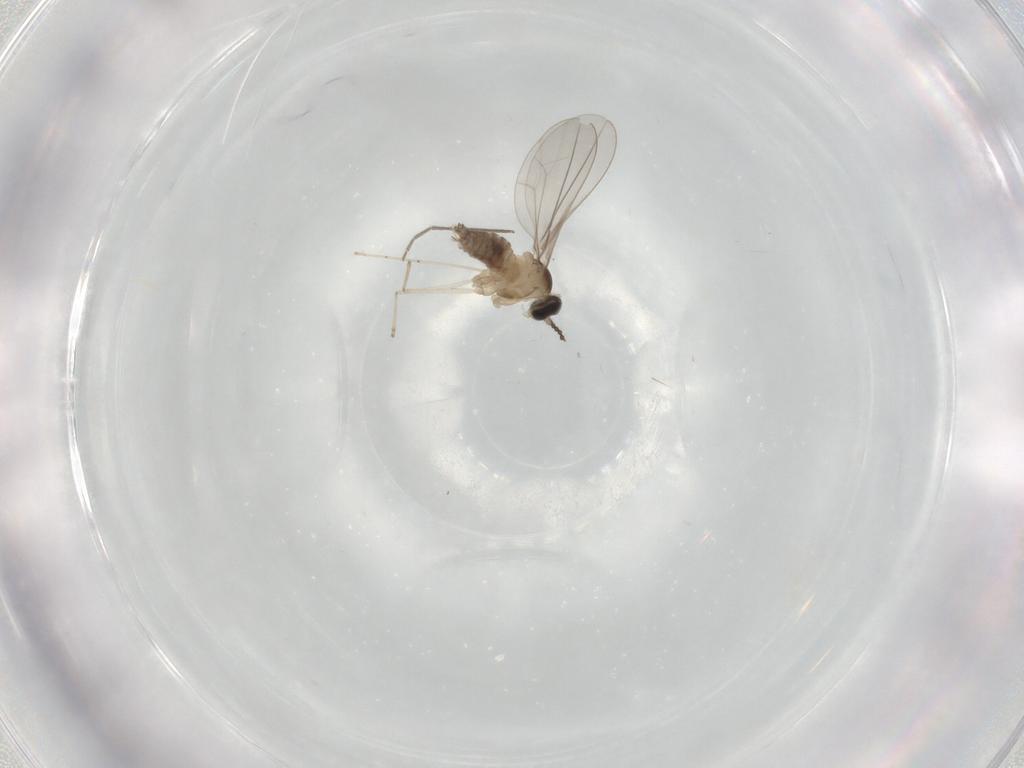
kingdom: Animalia
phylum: Arthropoda
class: Insecta
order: Diptera
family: Cecidomyiidae
